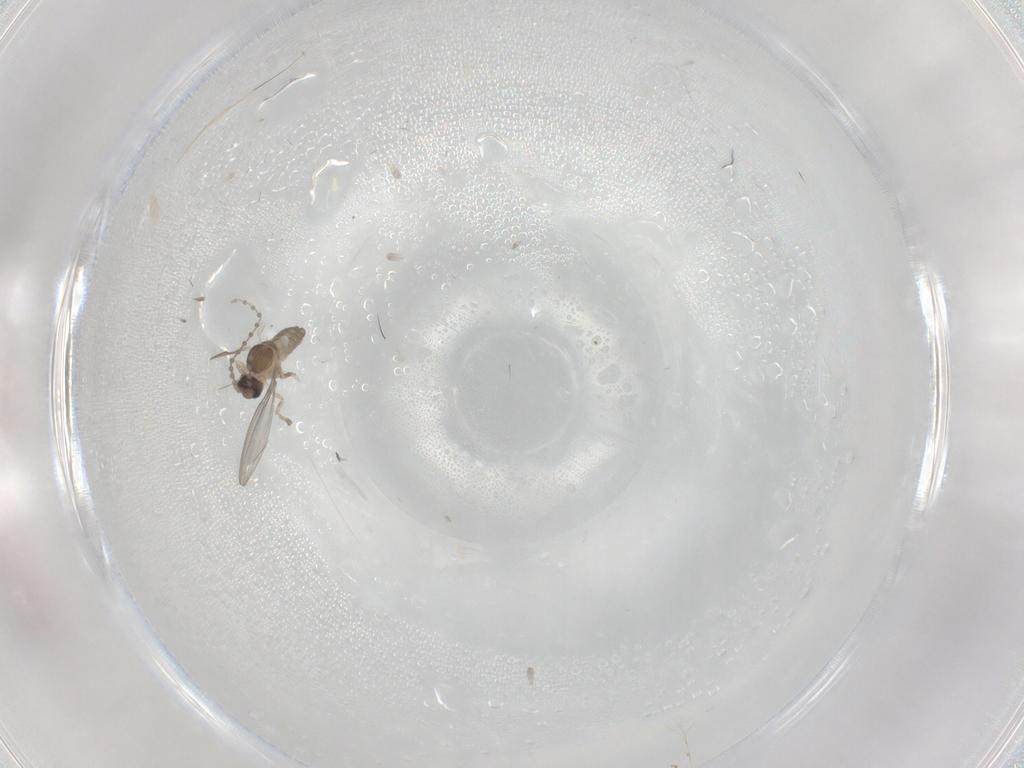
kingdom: Animalia
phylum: Arthropoda
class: Insecta
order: Diptera
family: Cecidomyiidae
